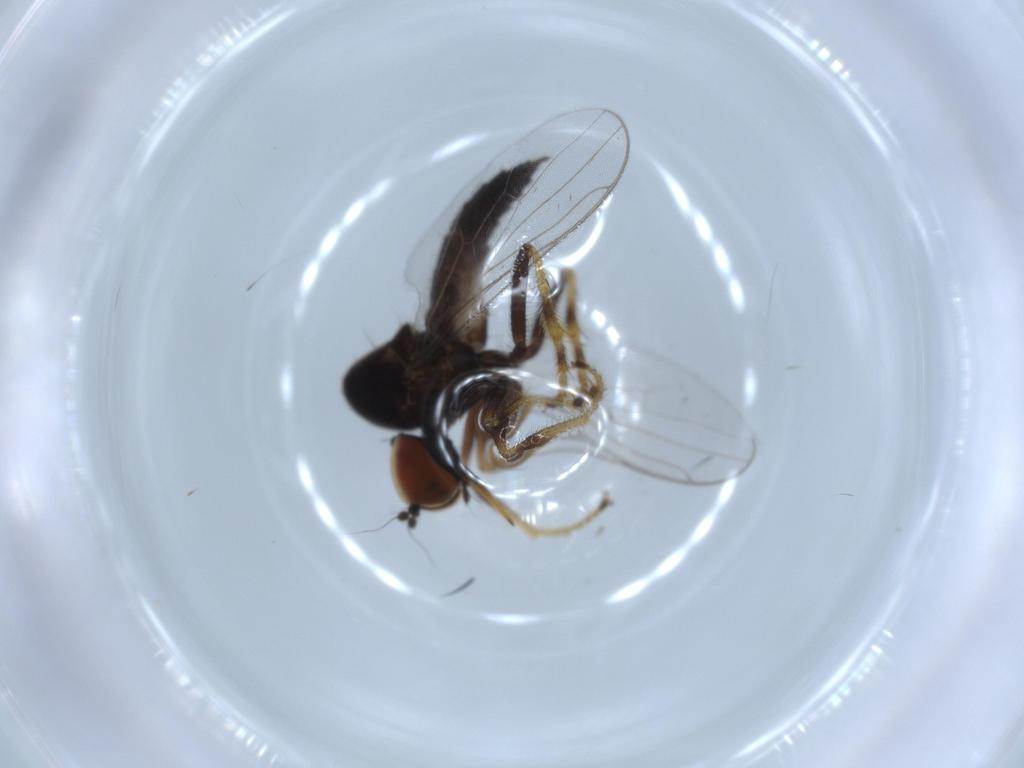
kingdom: Animalia
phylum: Arthropoda
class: Insecta
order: Diptera
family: Hybotidae
